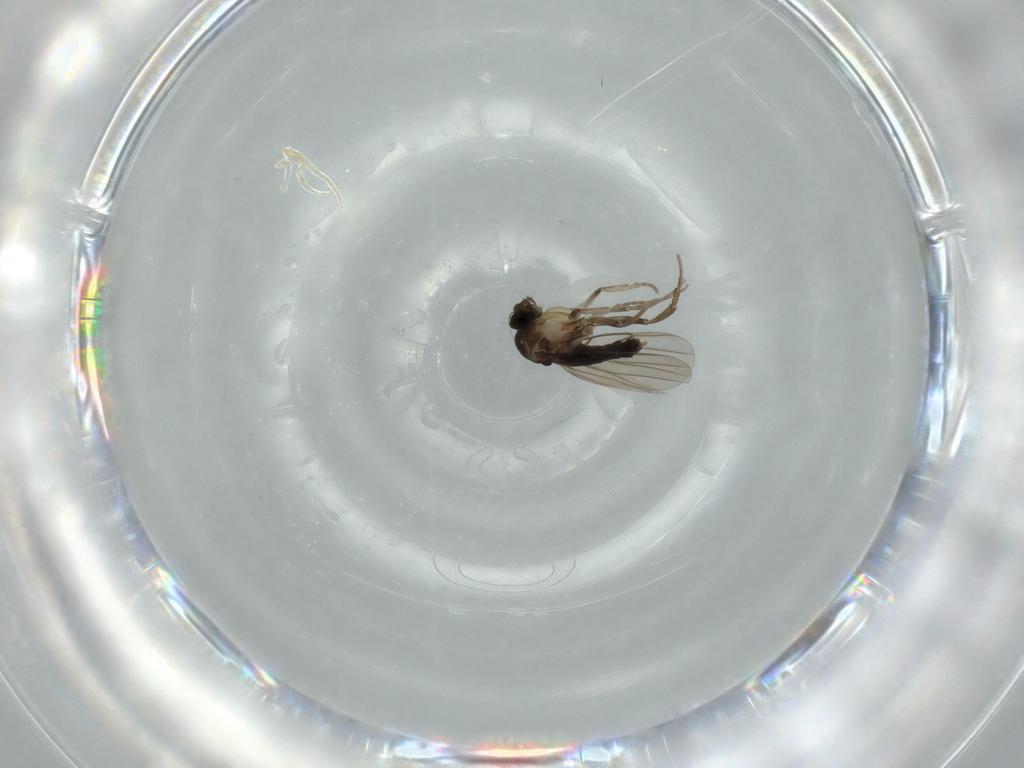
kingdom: Animalia
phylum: Arthropoda
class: Insecta
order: Diptera
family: Phoridae
